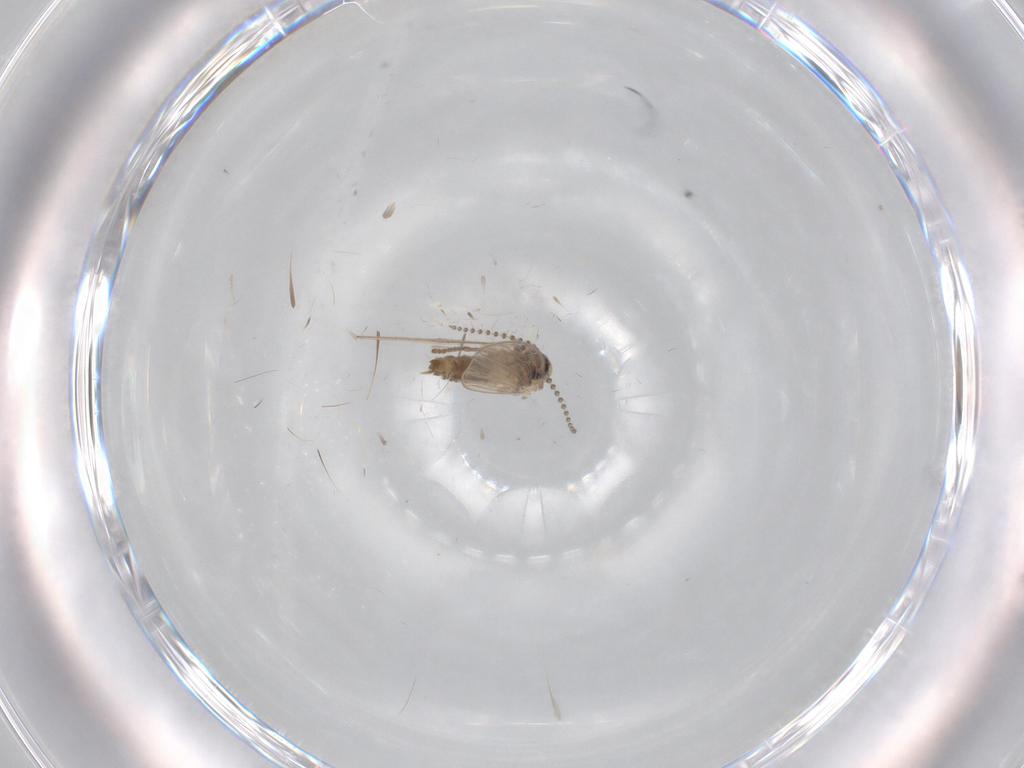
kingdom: Animalia
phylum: Arthropoda
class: Insecta
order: Diptera
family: Psychodidae
